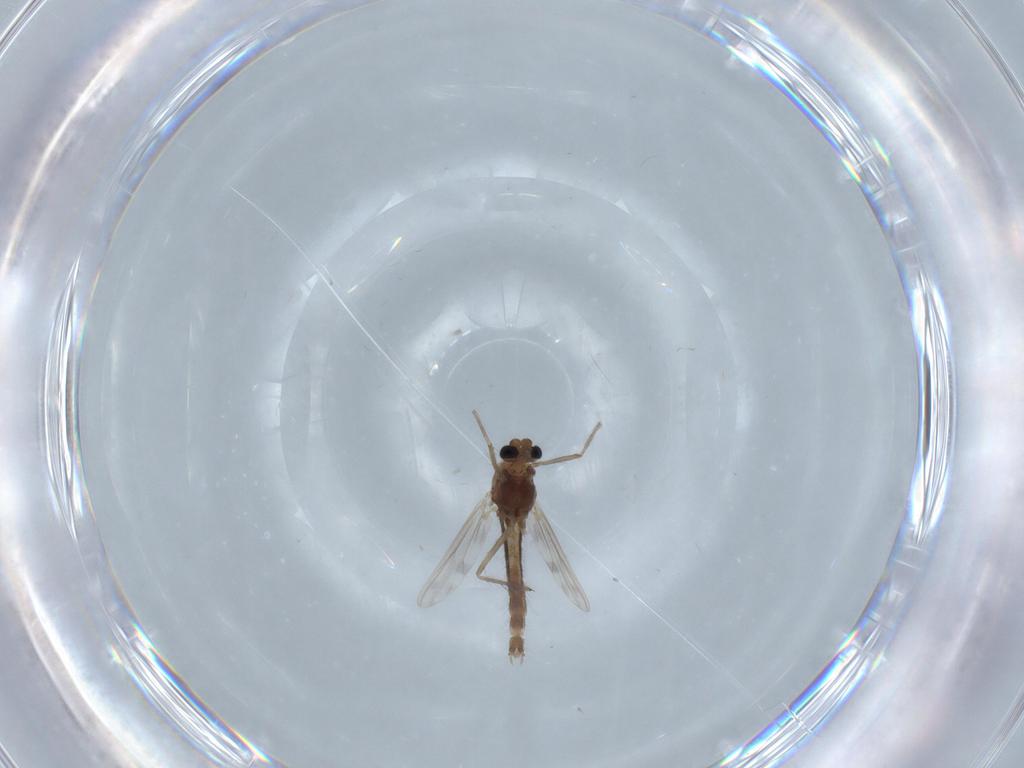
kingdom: Animalia
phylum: Arthropoda
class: Insecta
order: Diptera
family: Chironomidae
